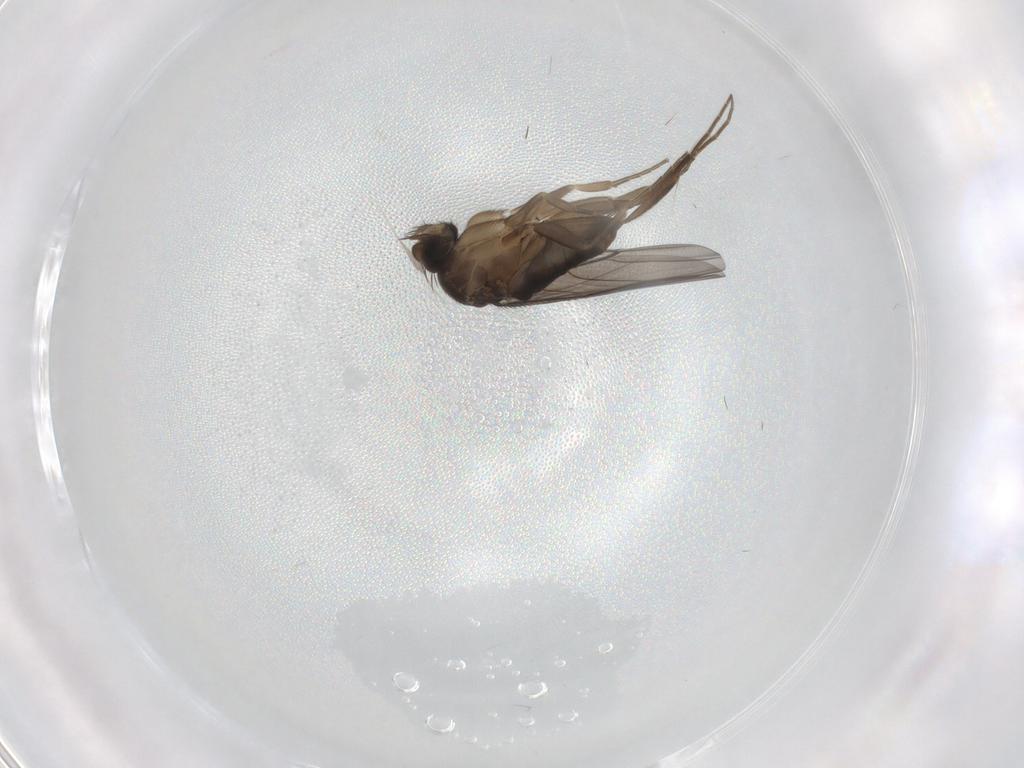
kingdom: Animalia
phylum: Arthropoda
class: Insecta
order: Diptera
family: Phoridae
